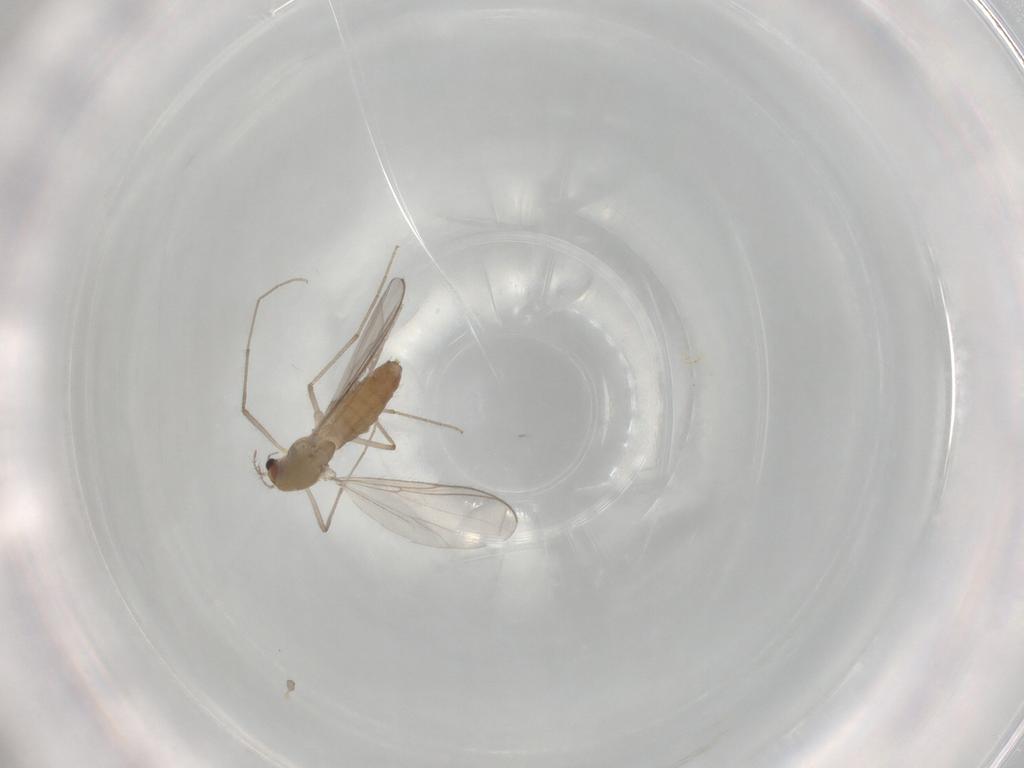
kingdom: Animalia
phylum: Arthropoda
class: Insecta
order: Diptera
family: Chironomidae
